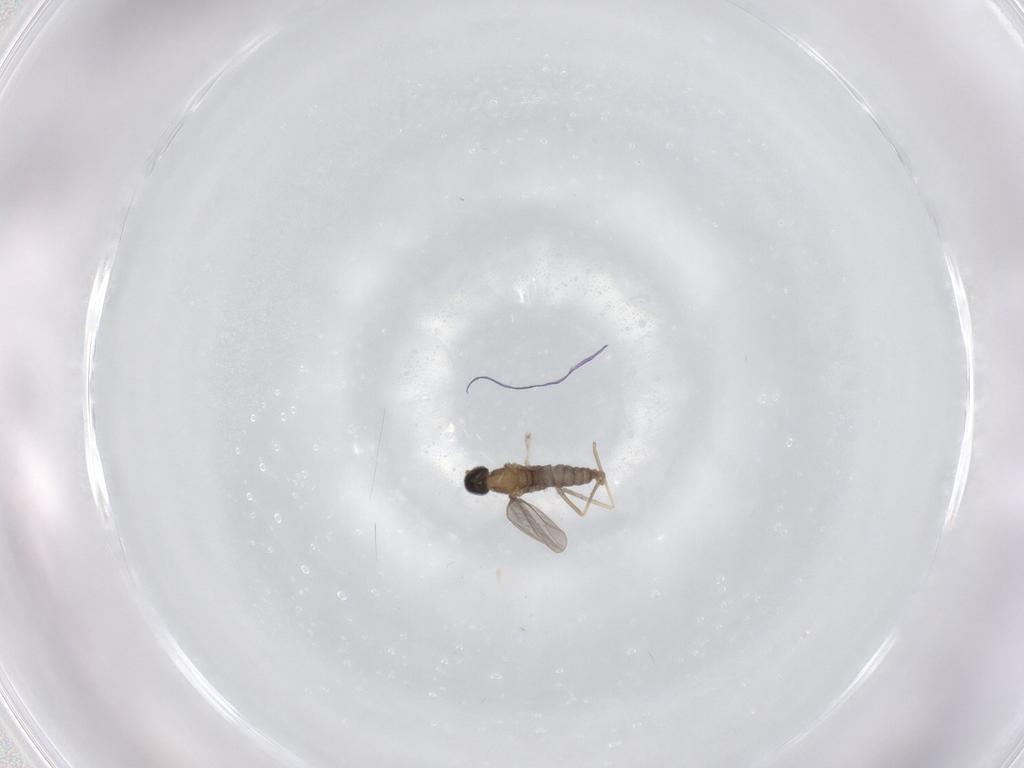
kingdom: Animalia
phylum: Arthropoda
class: Insecta
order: Diptera
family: Cecidomyiidae
